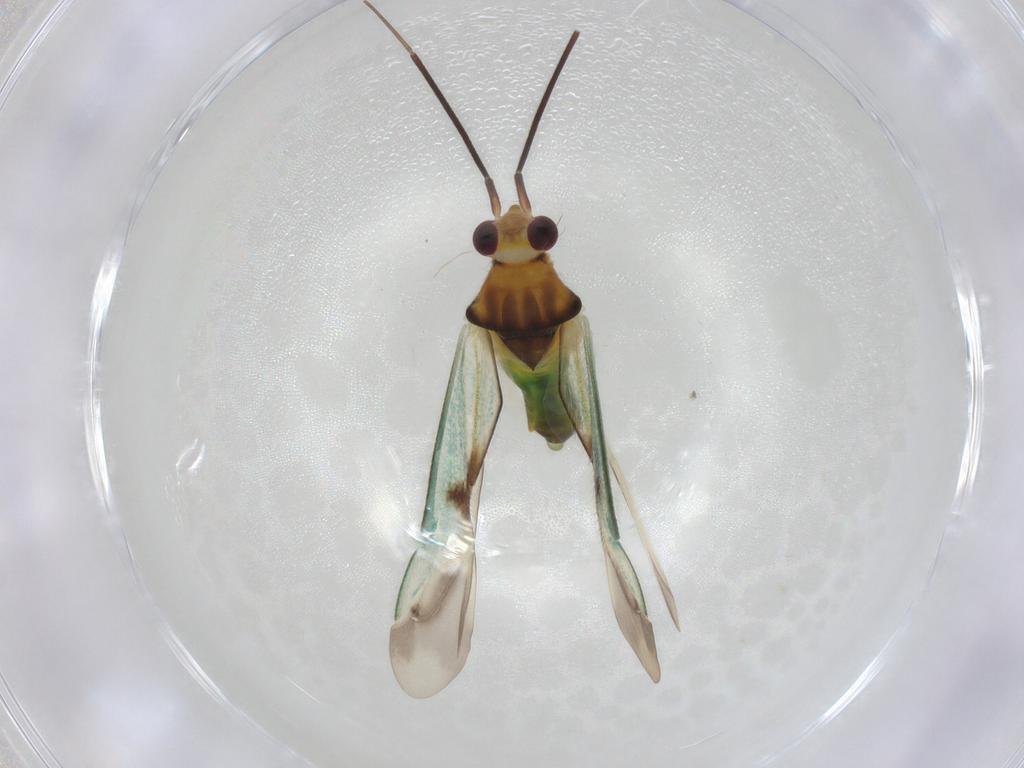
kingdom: Animalia
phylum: Arthropoda
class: Insecta
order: Hemiptera
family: Miridae
